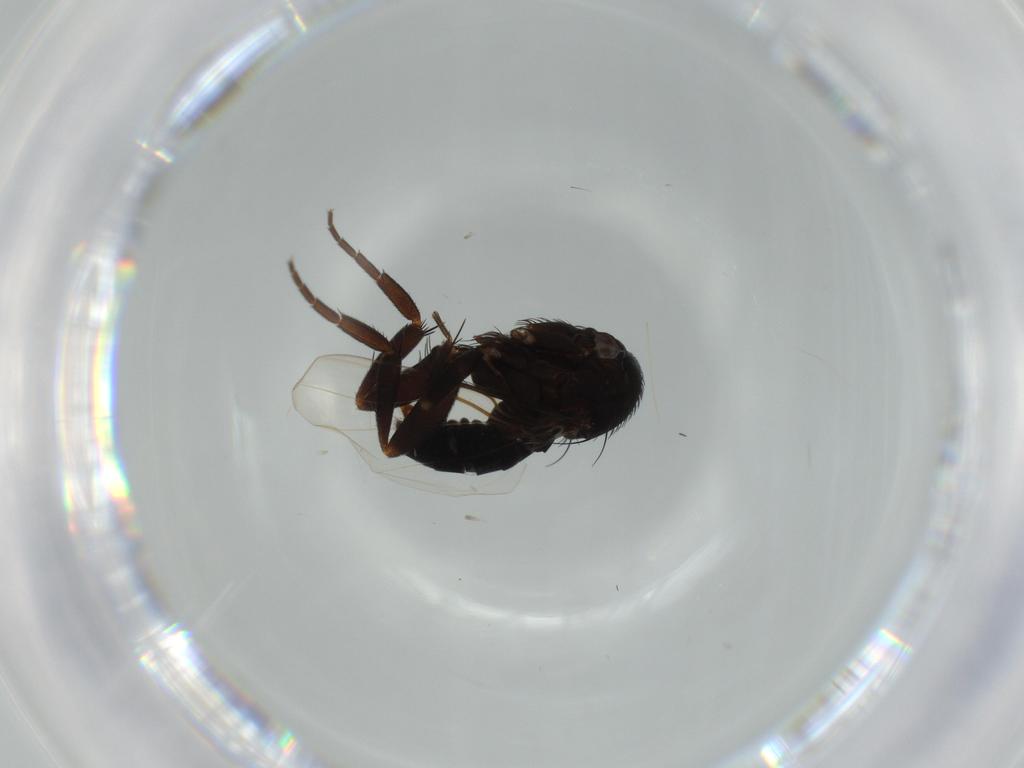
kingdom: Animalia
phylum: Arthropoda
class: Insecta
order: Diptera
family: Phoridae
